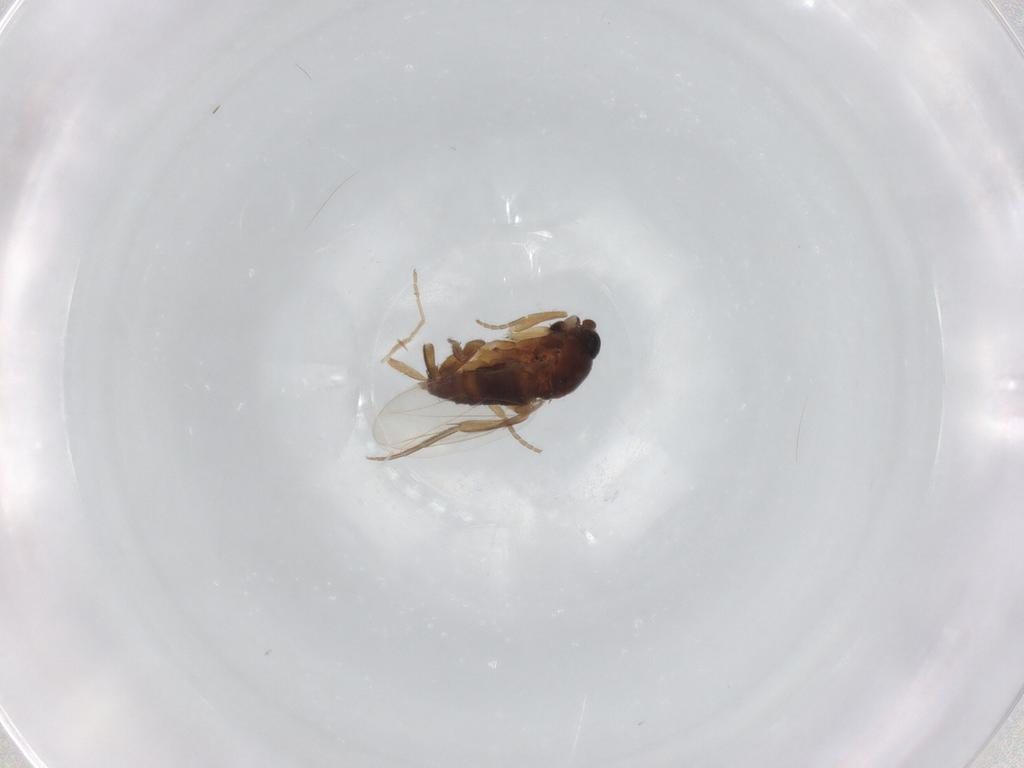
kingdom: Animalia
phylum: Arthropoda
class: Insecta
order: Diptera
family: Phoridae
